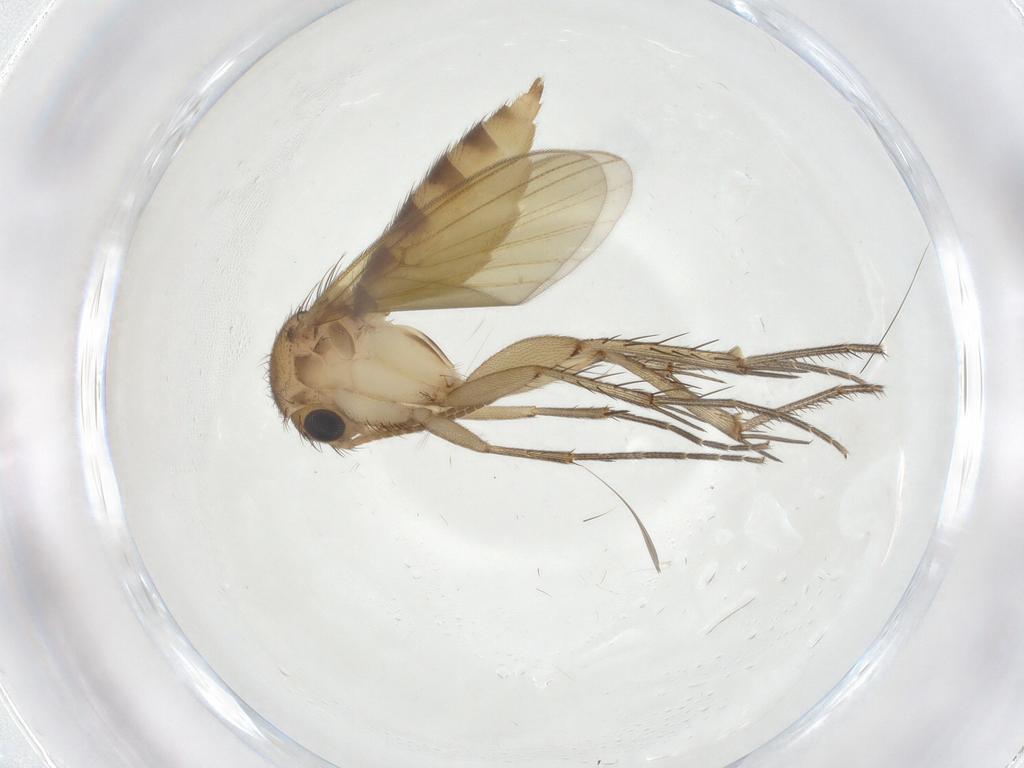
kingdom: Animalia
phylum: Arthropoda
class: Insecta
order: Diptera
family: Mycetophilidae
